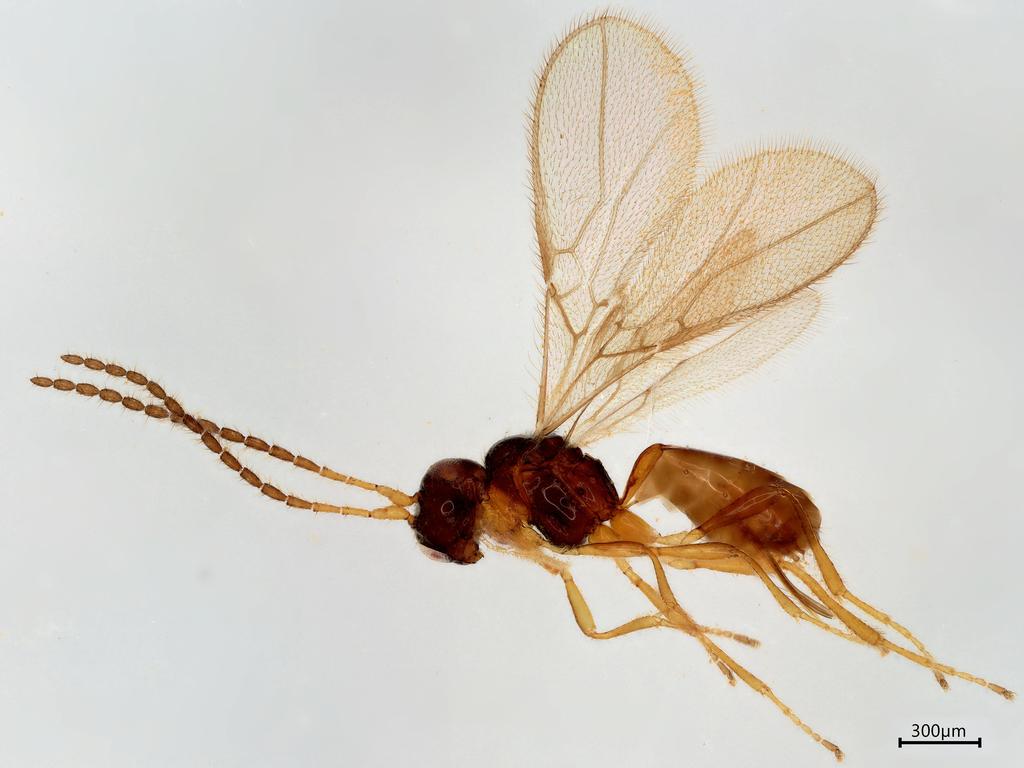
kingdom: Animalia
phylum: Arthropoda
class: Insecta
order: Hymenoptera
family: Braconidae
